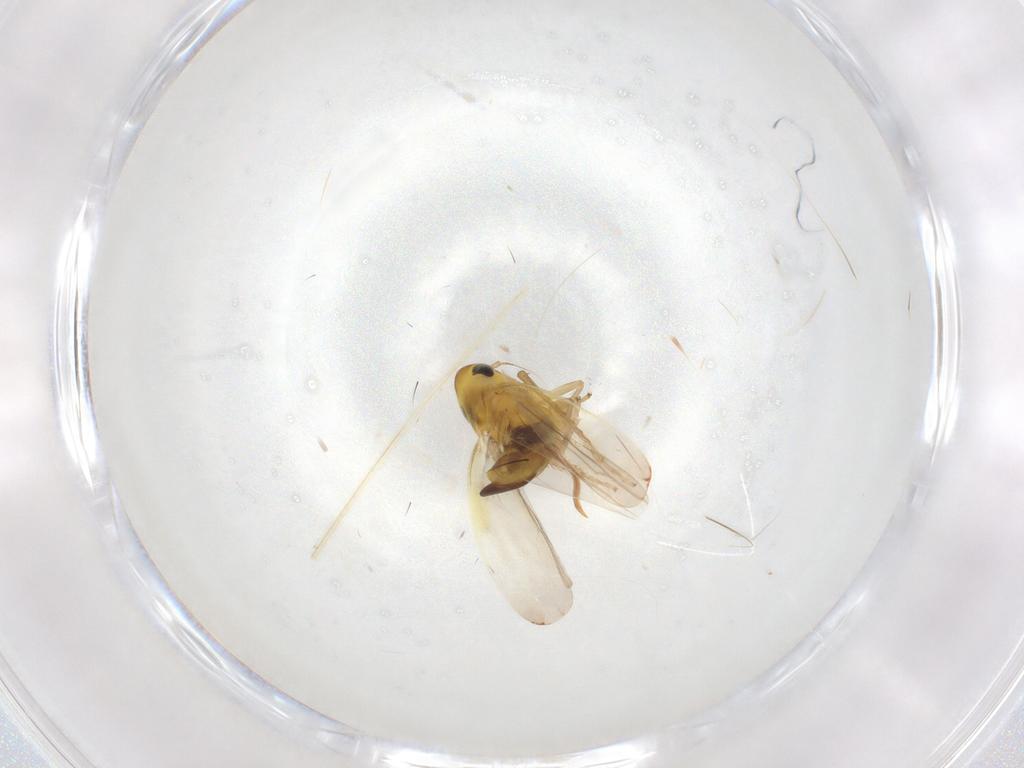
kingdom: Animalia
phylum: Arthropoda
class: Insecta
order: Hemiptera
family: Cicadellidae
